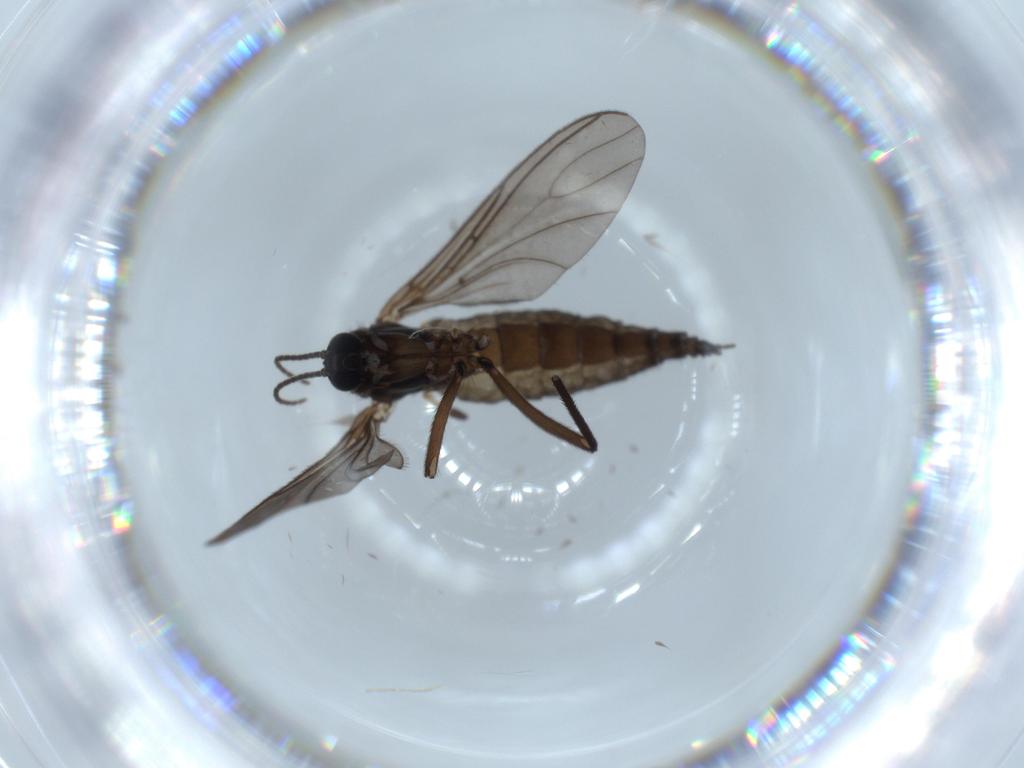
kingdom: Animalia
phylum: Arthropoda
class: Insecta
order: Diptera
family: Sciaridae
